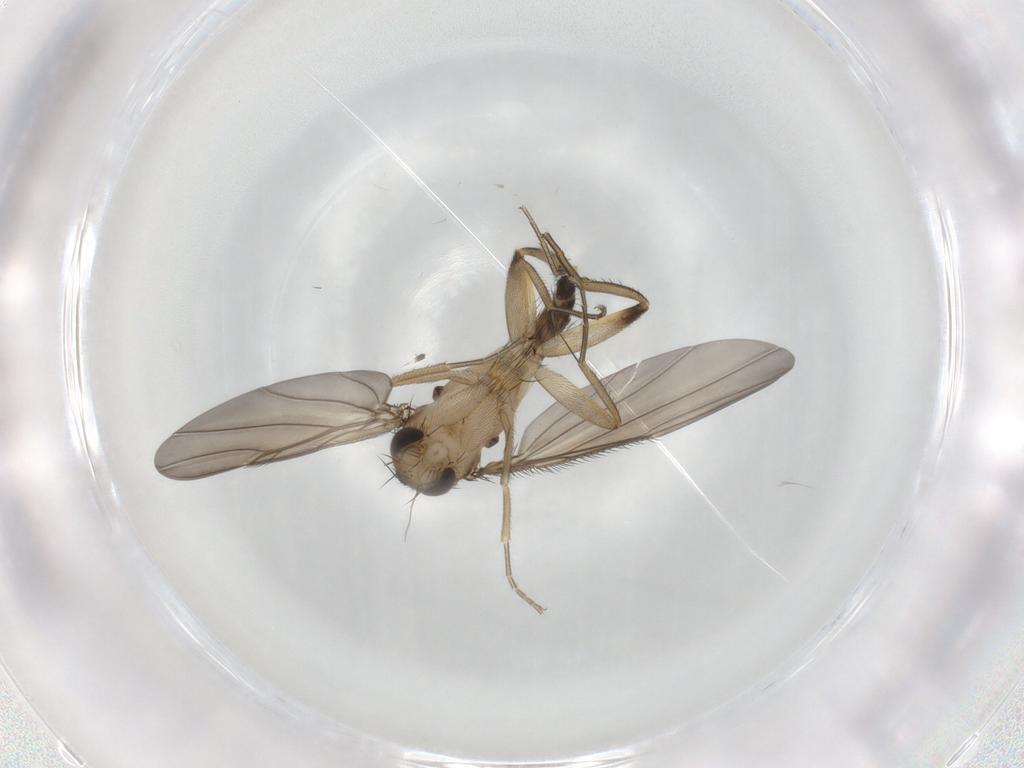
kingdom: Animalia
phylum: Arthropoda
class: Insecta
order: Diptera
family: Phoridae
